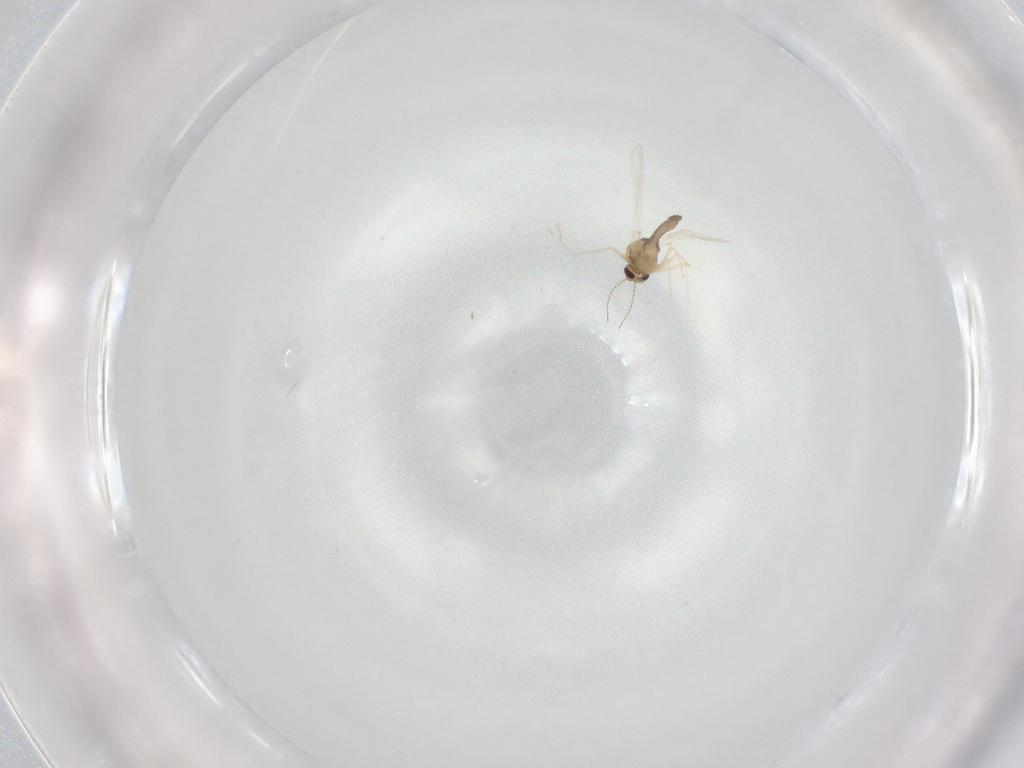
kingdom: Animalia
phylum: Arthropoda
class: Insecta
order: Diptera
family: Chironomidae
